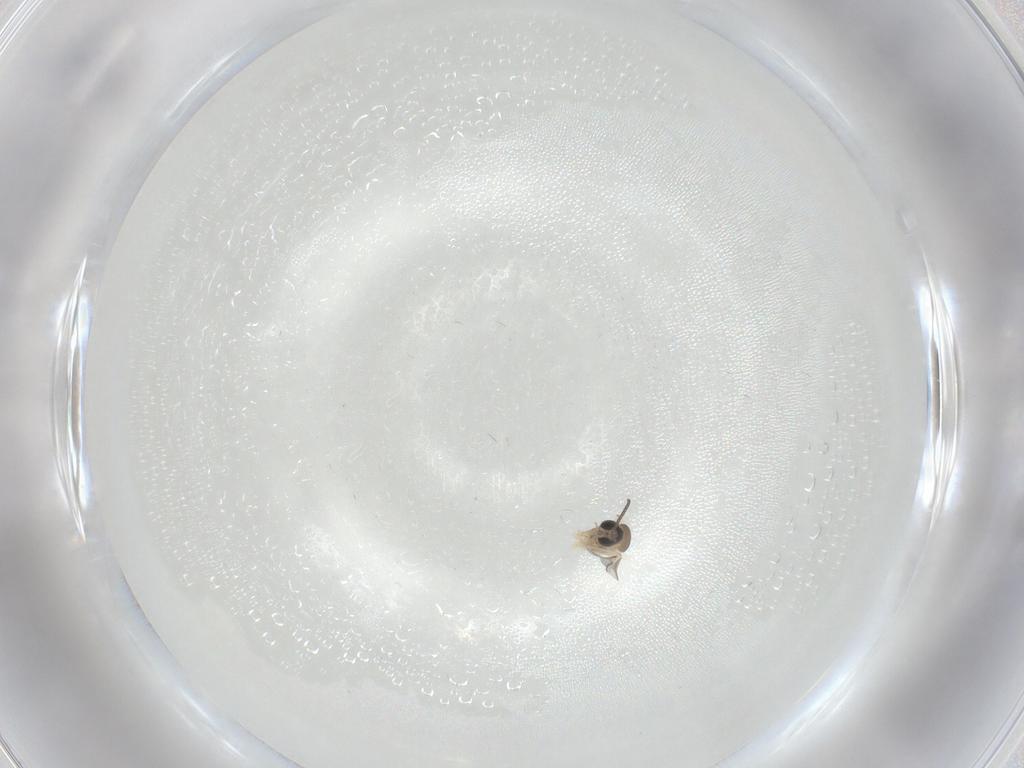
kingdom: Animalia
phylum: Arthropoda
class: Insecta
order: Diptera
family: Cecidomyiidae
